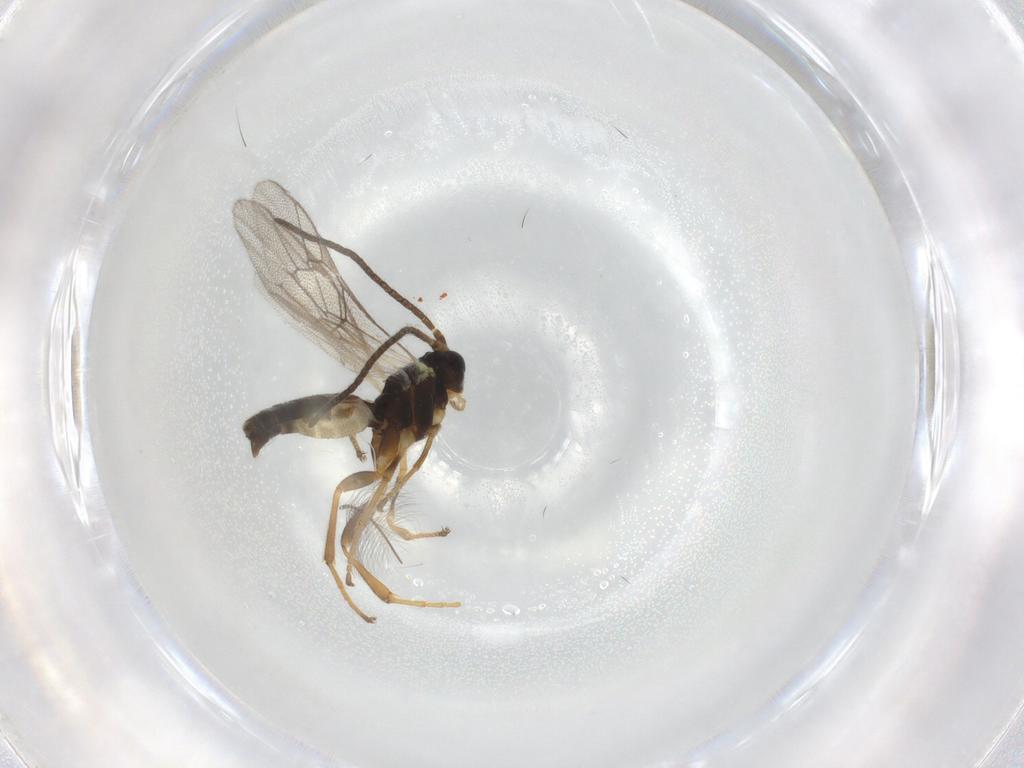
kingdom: Animalia
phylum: Arthropoda
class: Insecta
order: Hymenoptera
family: Ichneumonidae
